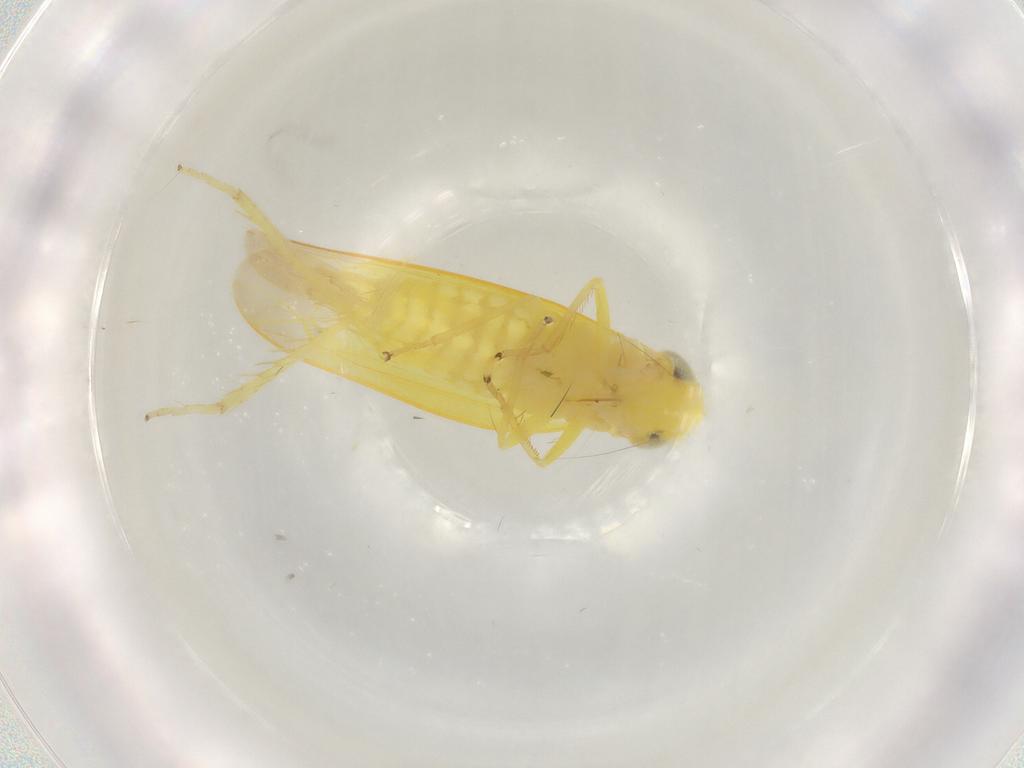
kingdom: Animalia
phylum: Arthropoda
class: Insecta
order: Hemiptera
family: Cicadellidae
